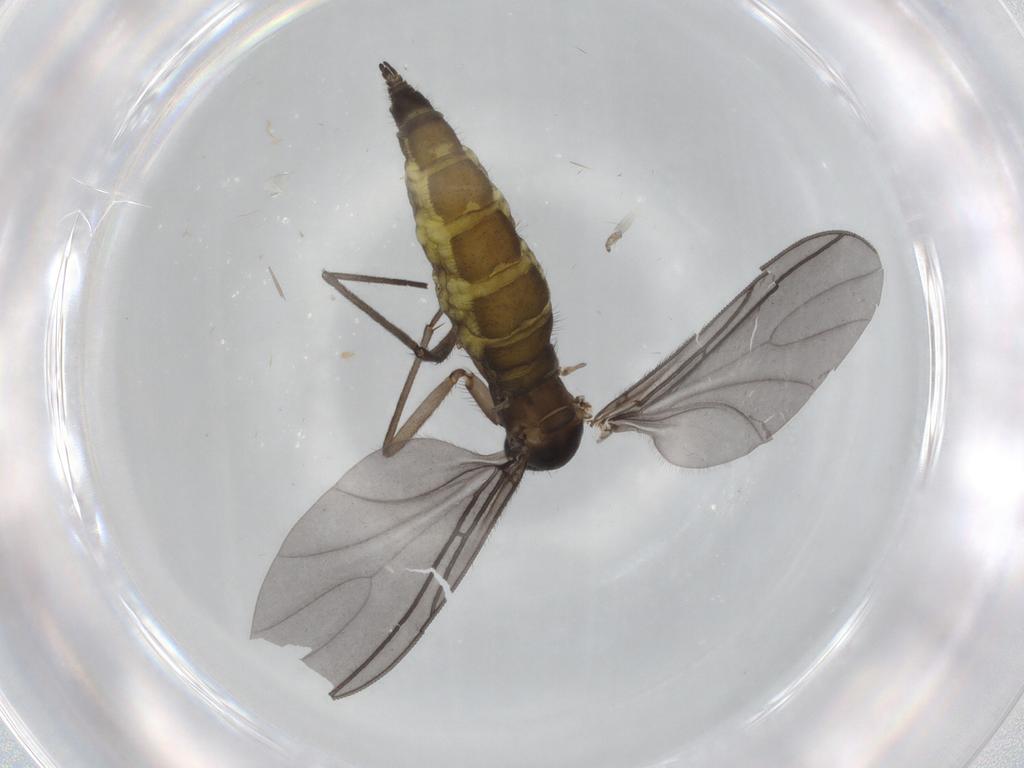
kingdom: Animalia
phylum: Arthropoda
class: Insecta
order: Diptera
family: Sciaridae
